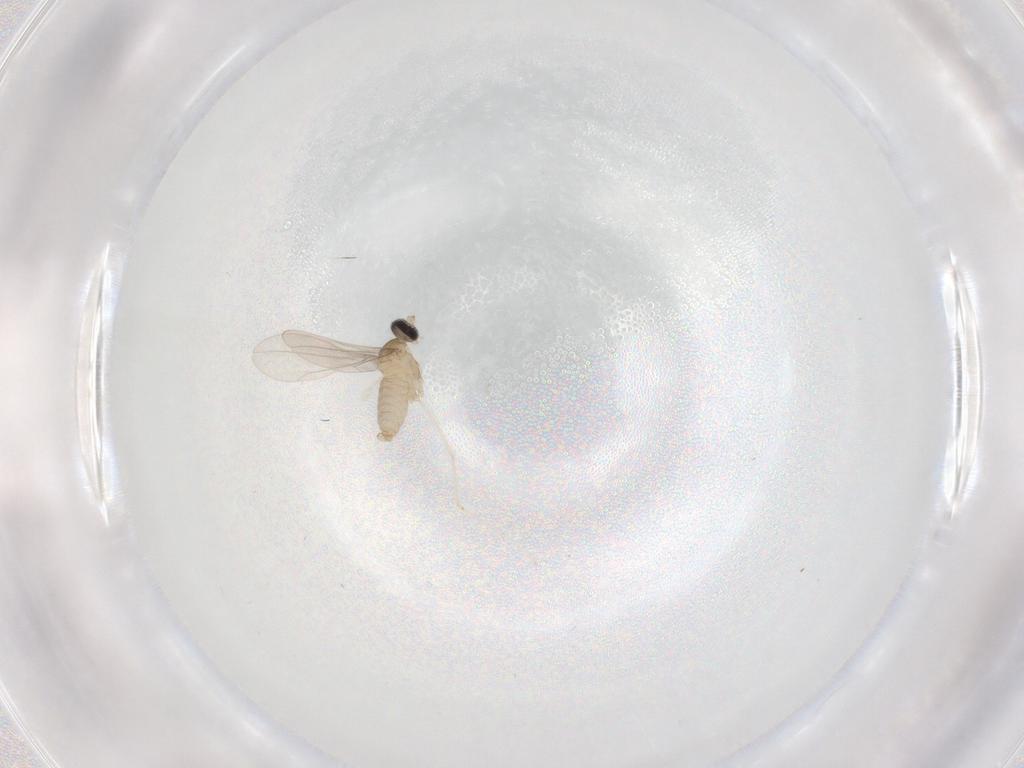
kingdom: Animalia
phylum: Arthropoda
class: Insecta
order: Diptera
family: Cecidomyiidae
